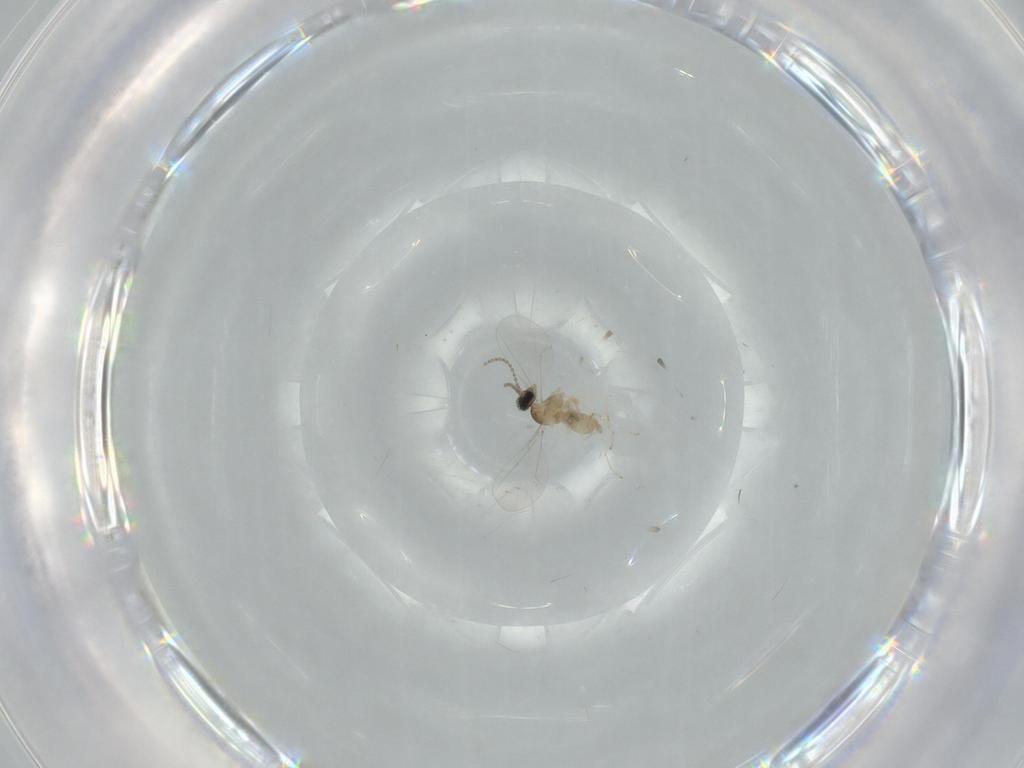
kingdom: Animalia
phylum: Arthropoda
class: Insecta
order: Diptera
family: Cecidomyiidae
